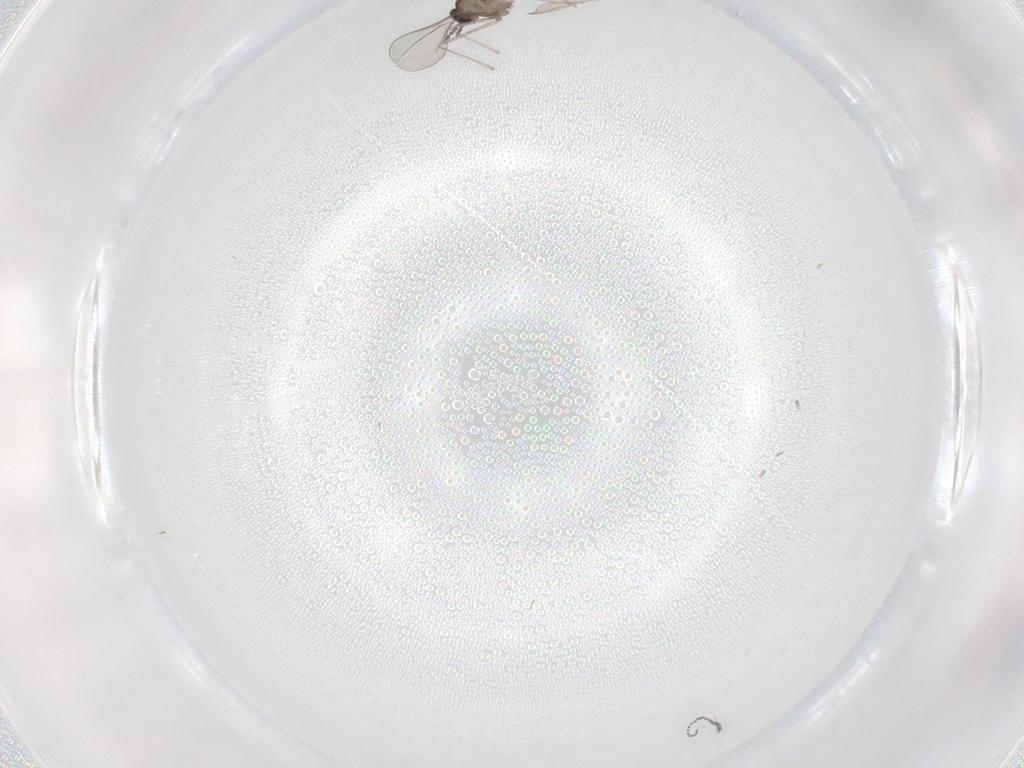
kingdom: Animalia
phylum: Arthropoda
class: Insecta
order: Diptera
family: Cecidomyiidae
